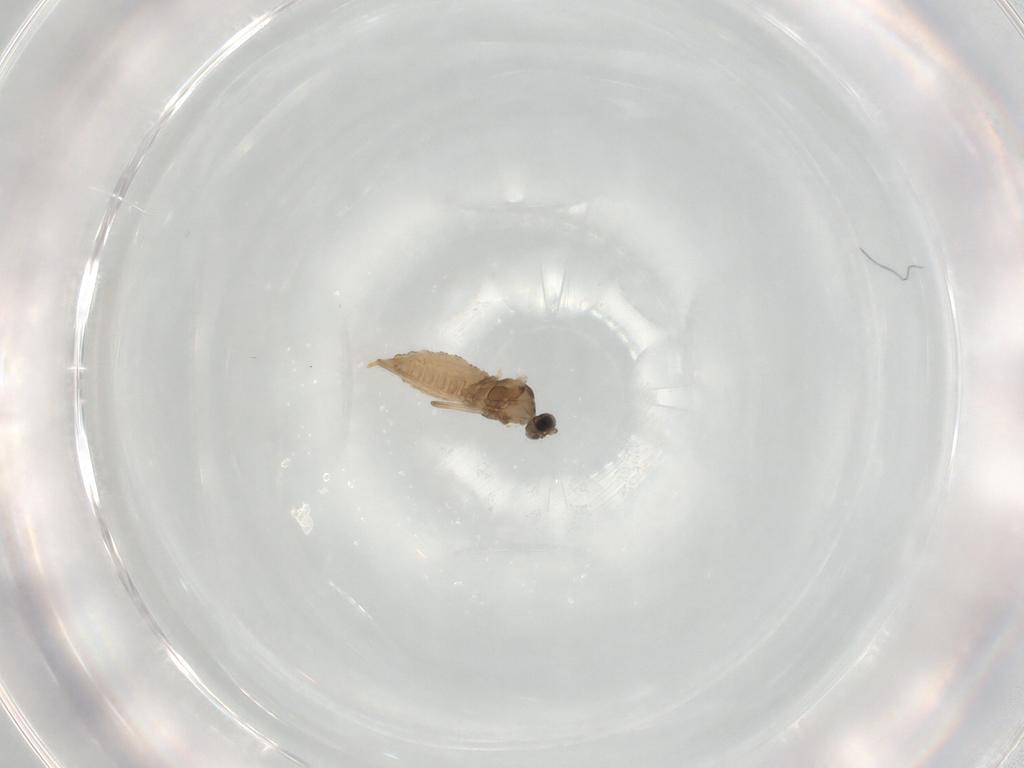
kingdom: Animalia
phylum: Arthropoda
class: Insecta
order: Diptera
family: Cecidomyiidae
